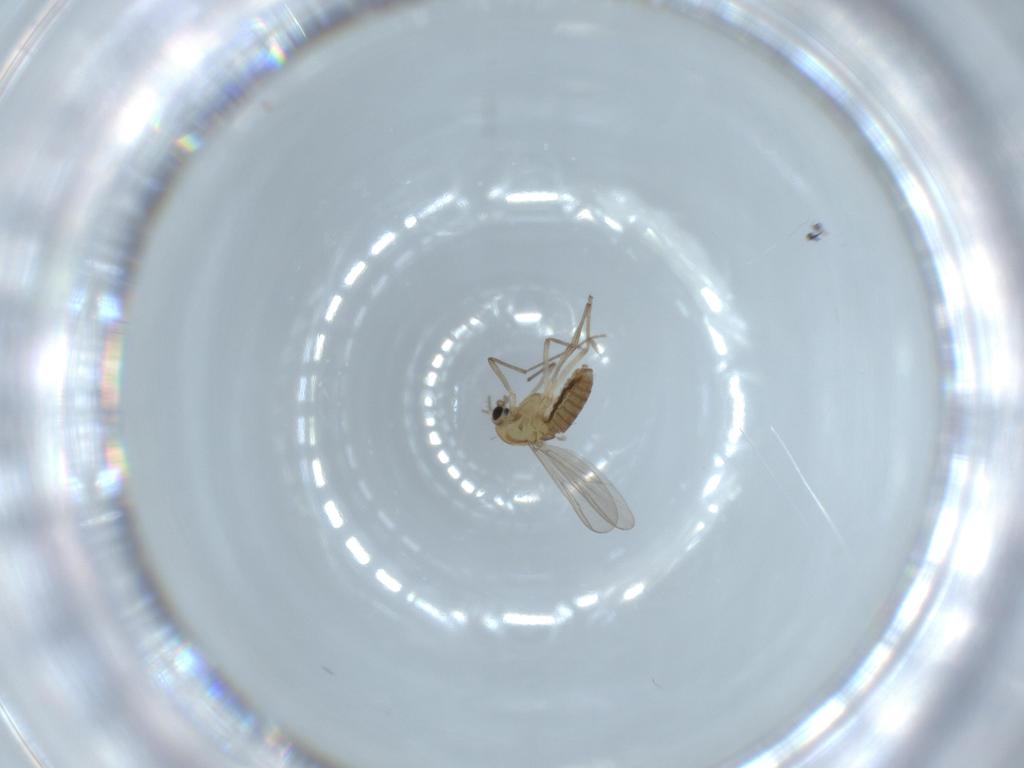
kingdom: Animalia
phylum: Arthropoda
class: Insecta
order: Diptera
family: Chironomidae
